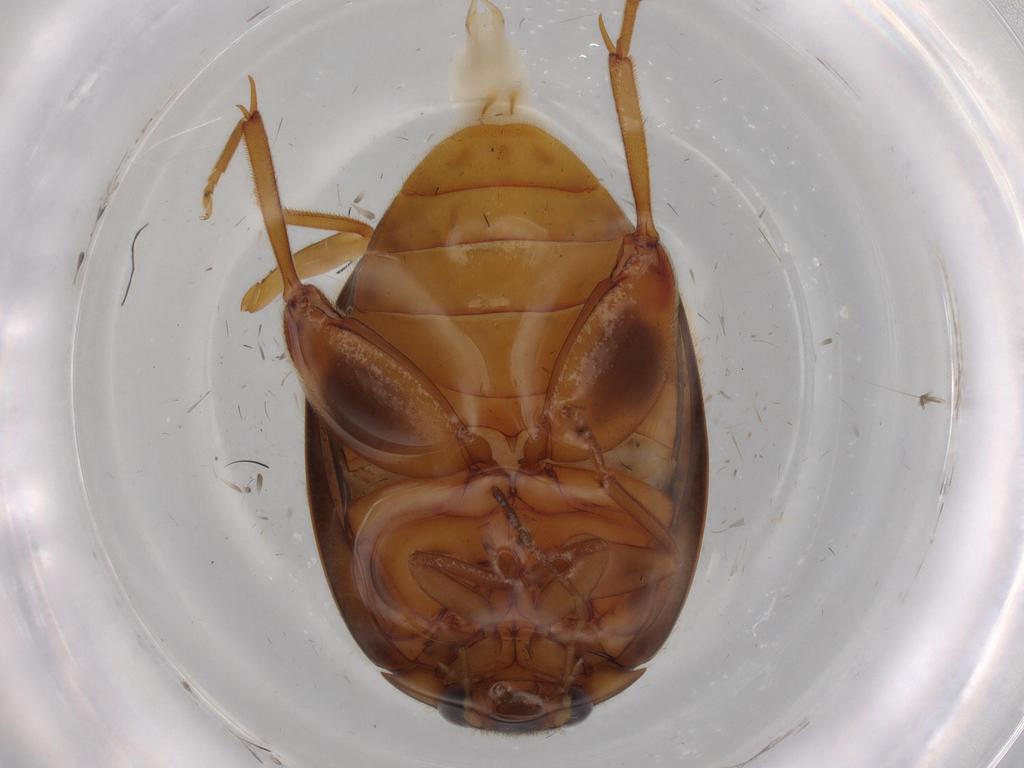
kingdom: Animalia
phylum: Arthropoda
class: Insecta
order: Coleoptera
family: Scirtidae
